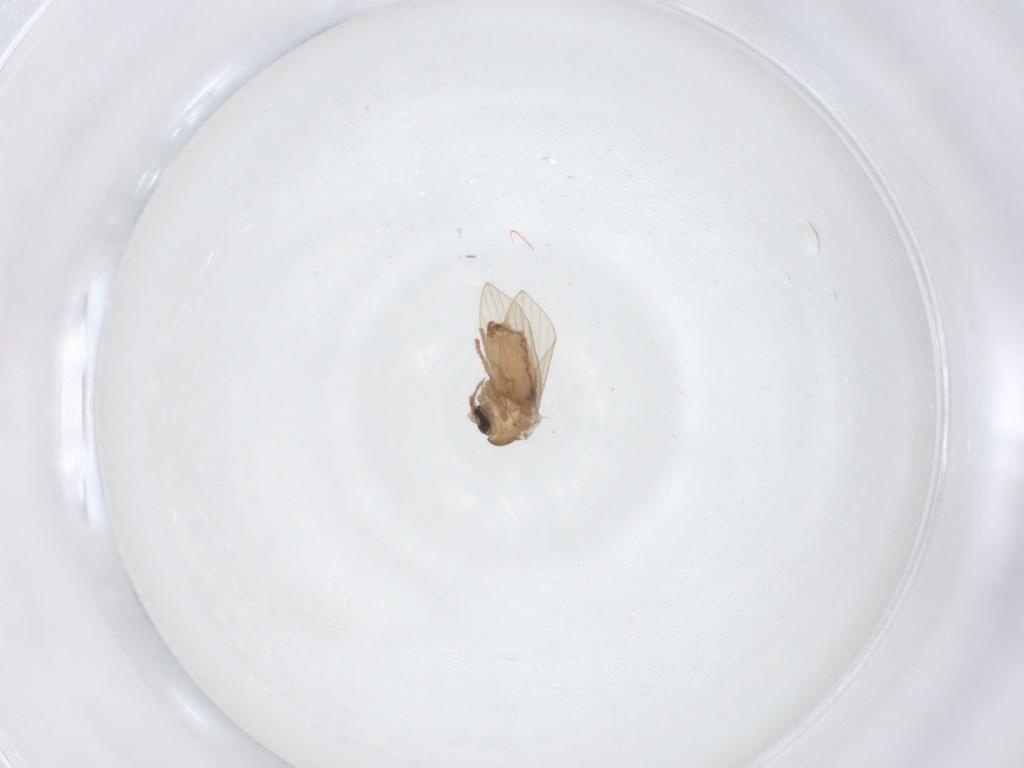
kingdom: Animalia
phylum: Arthropoda
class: Insecta
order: Diptera
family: Psychodidae
